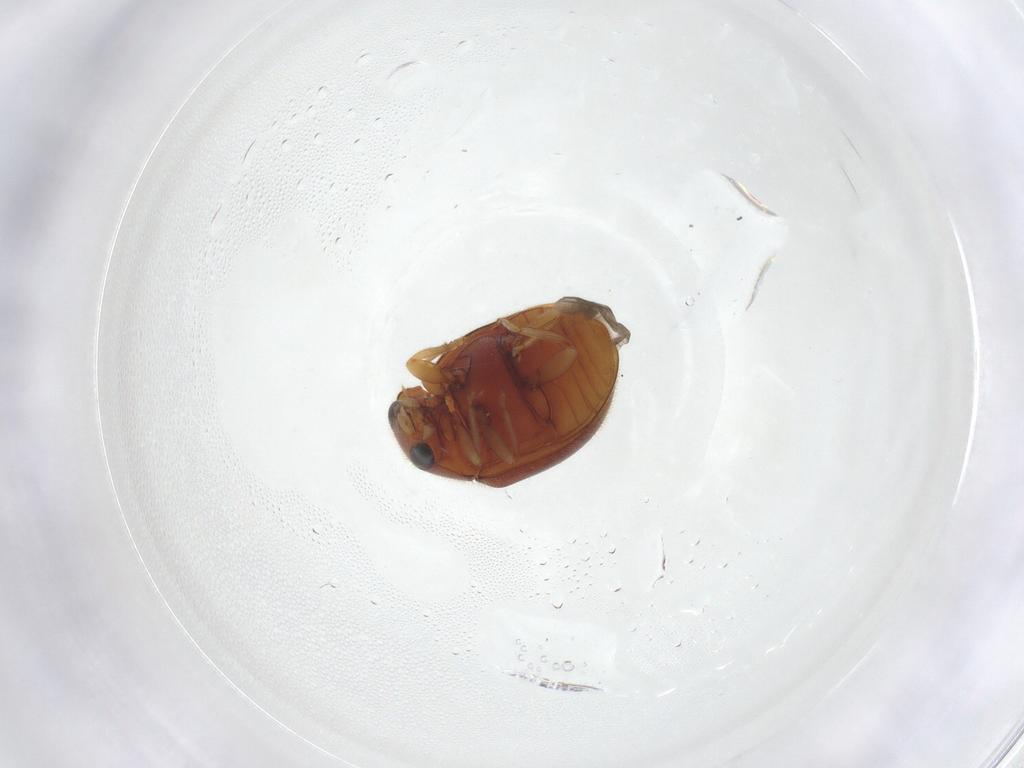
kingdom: Animalia
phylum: Arthropoda
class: Insecta
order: Coleoptera
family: Coccinellidae
